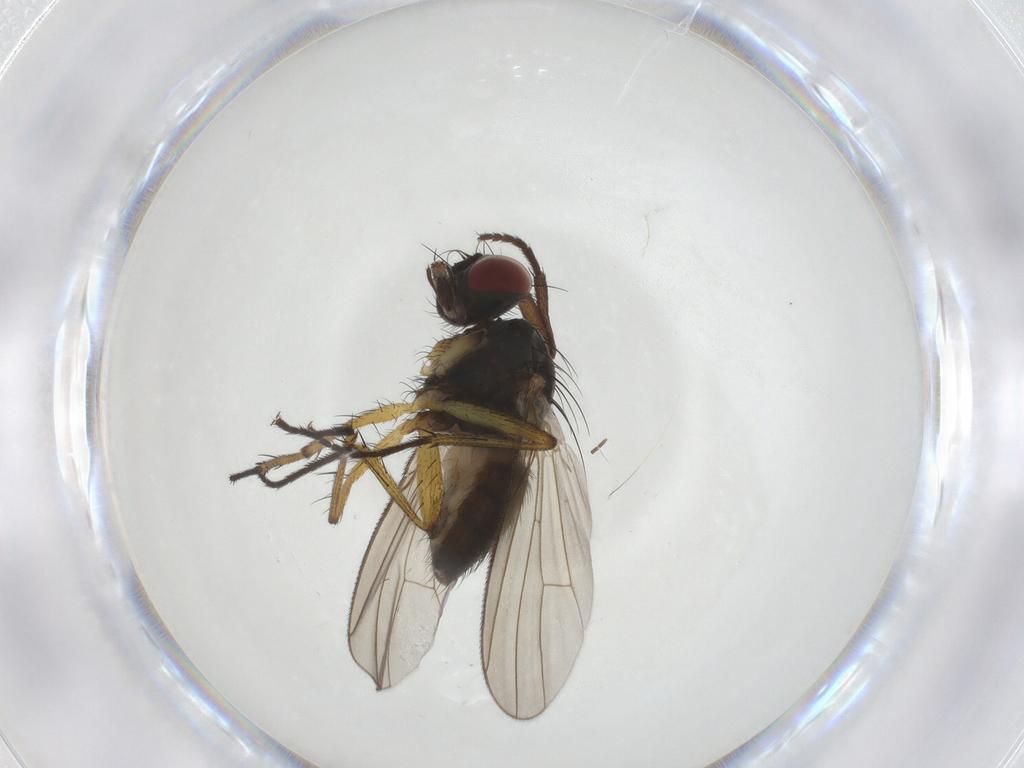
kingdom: Animalia
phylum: Arthropoda
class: Insecta
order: Diptera
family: Muscidae
